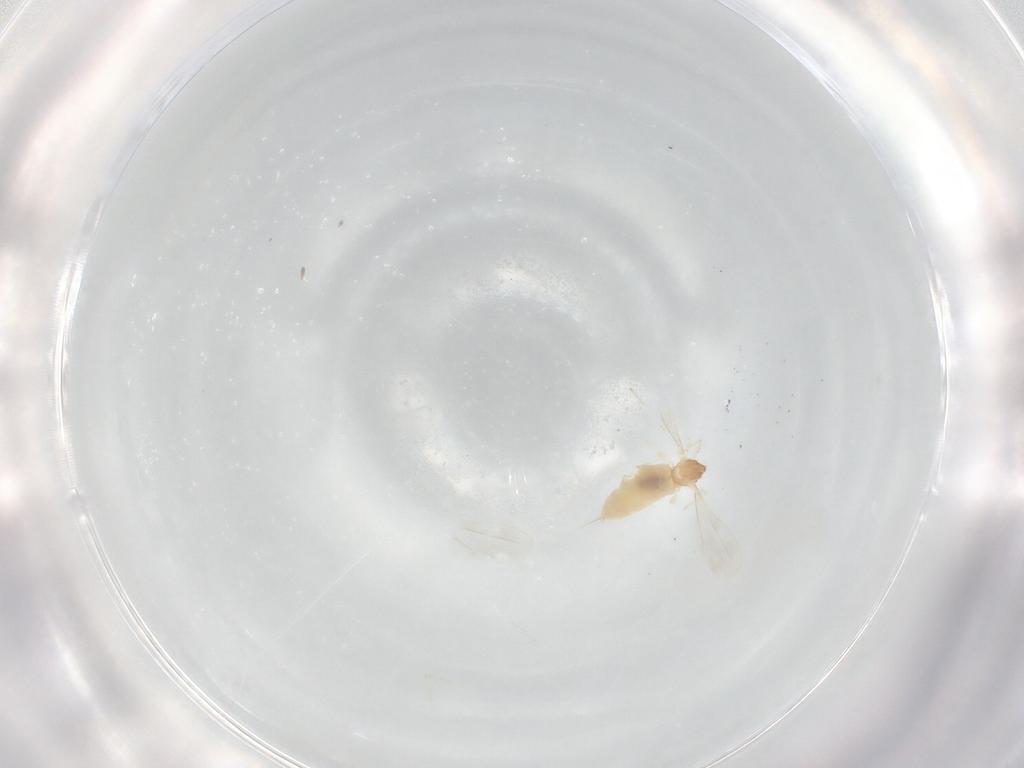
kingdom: Animalia
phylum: Arthropoda
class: Insecta
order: Diptera
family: Cecidomyiidae
